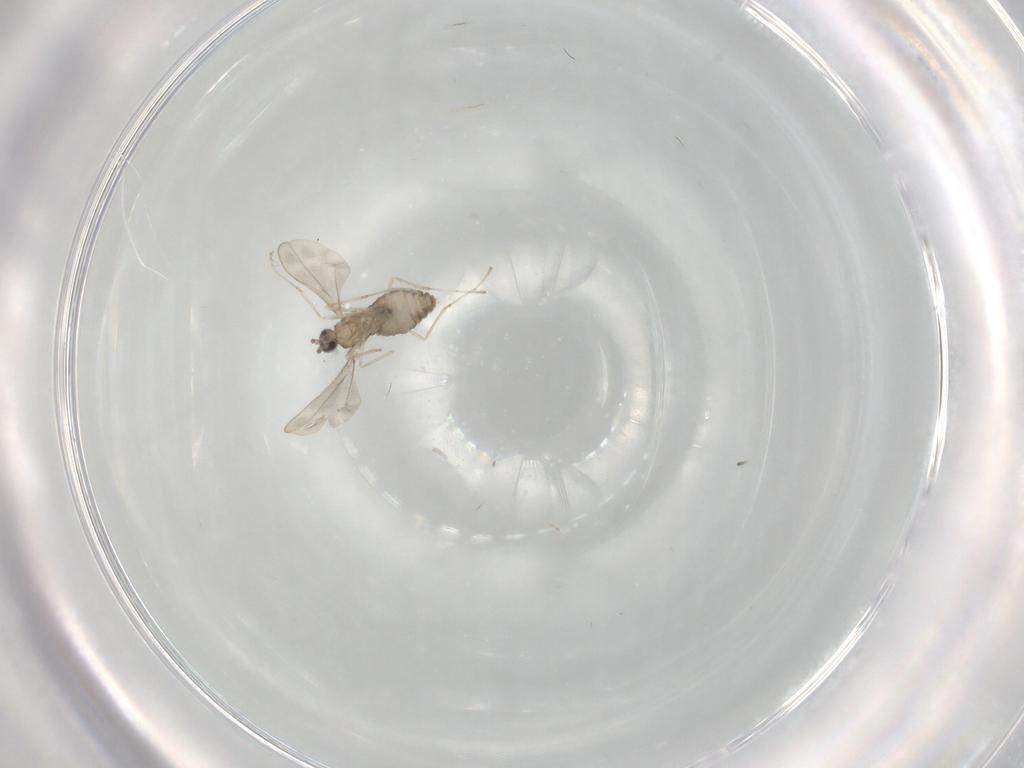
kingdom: Animalia
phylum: Arthropoda
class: Insecta
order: Diptera
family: Cecidomyiidae
